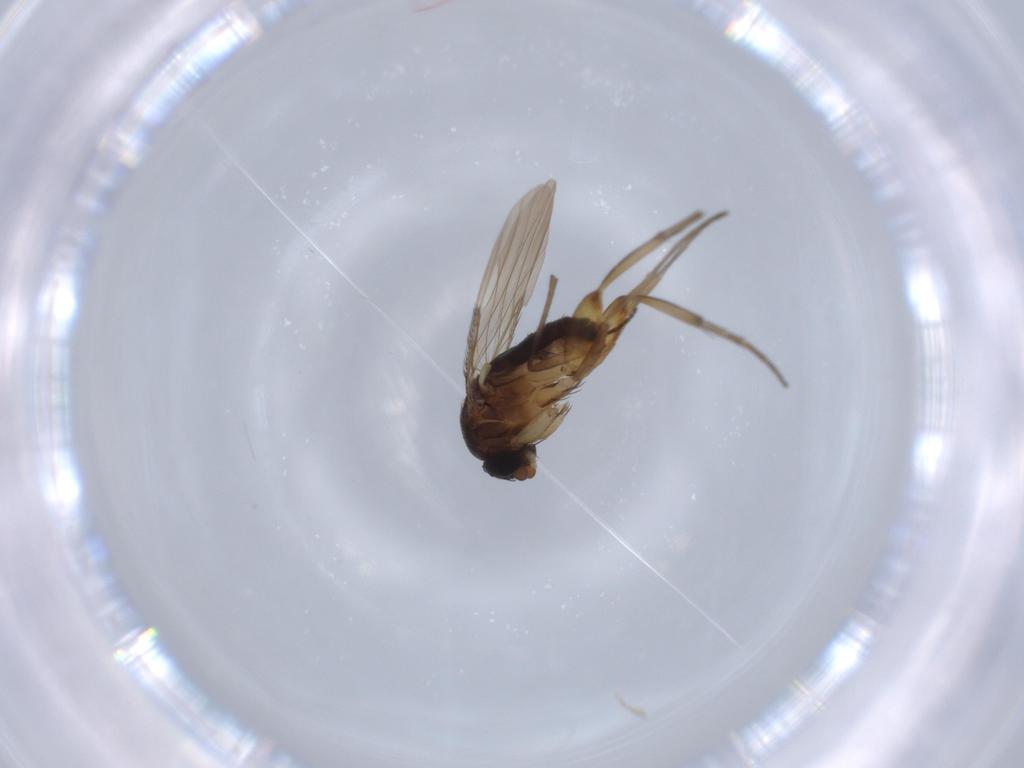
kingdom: Animalia
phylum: Arthropoda
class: Insecta
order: Diptera
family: Phoridae
